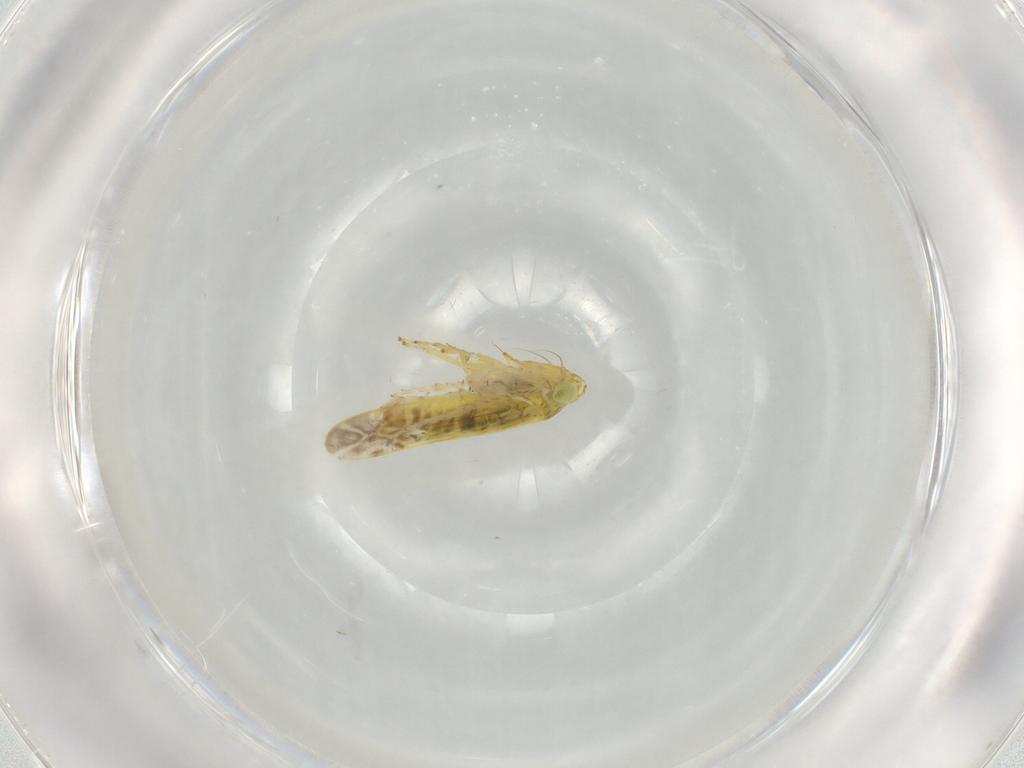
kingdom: Animalia
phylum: Arthropoda
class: Insecta
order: Hemiptera
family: Cicadellidae
